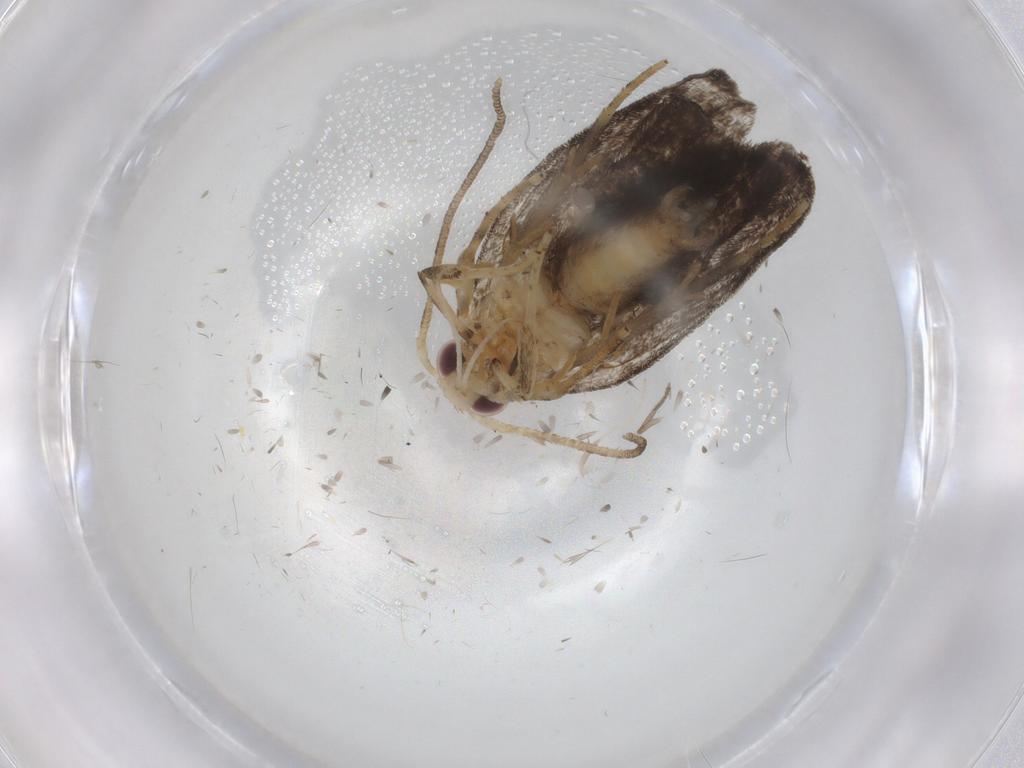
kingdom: Animalia
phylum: Arthropoda
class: Insecta
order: Lepidoptera
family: Gelechiidae
